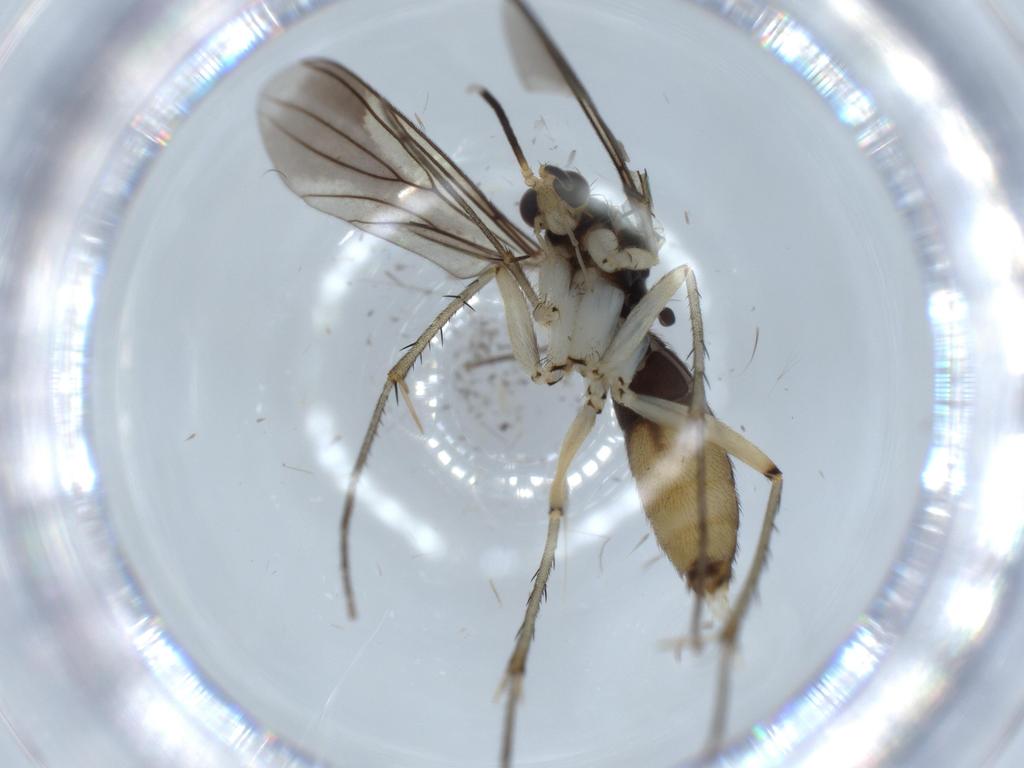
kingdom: Animalia
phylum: Arthropoda
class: Insecta
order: Diptera
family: Mycetophilidae
